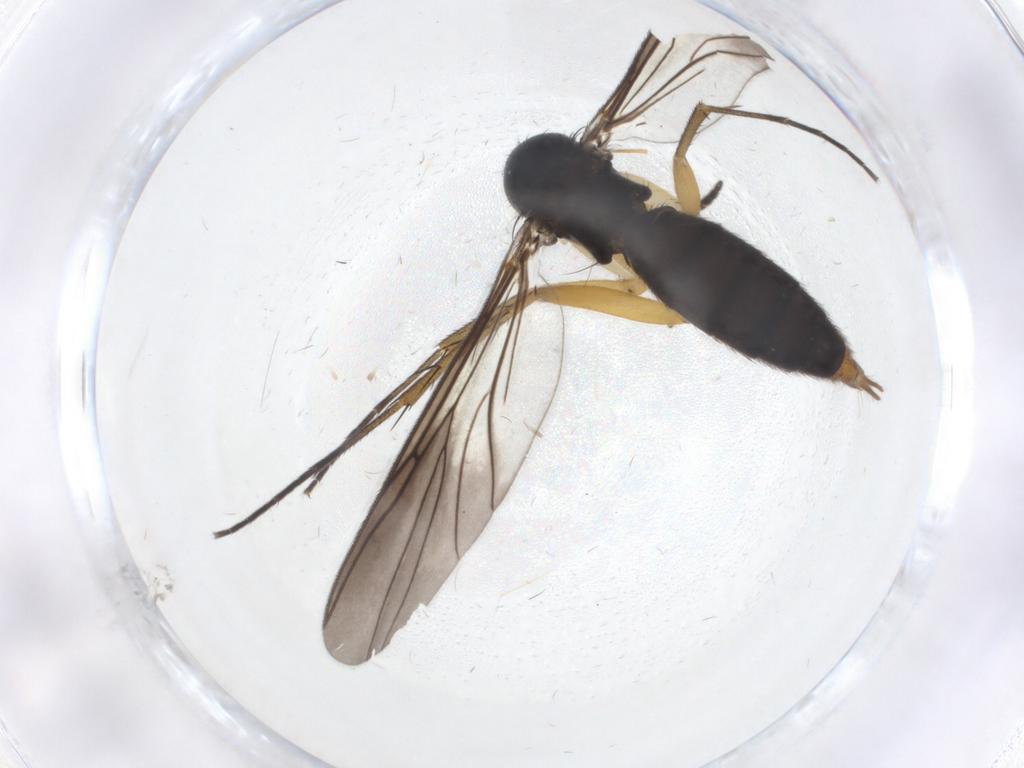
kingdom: Animalia
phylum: Arthropoda
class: Insecta
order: Diptera
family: Mycetophilidae
